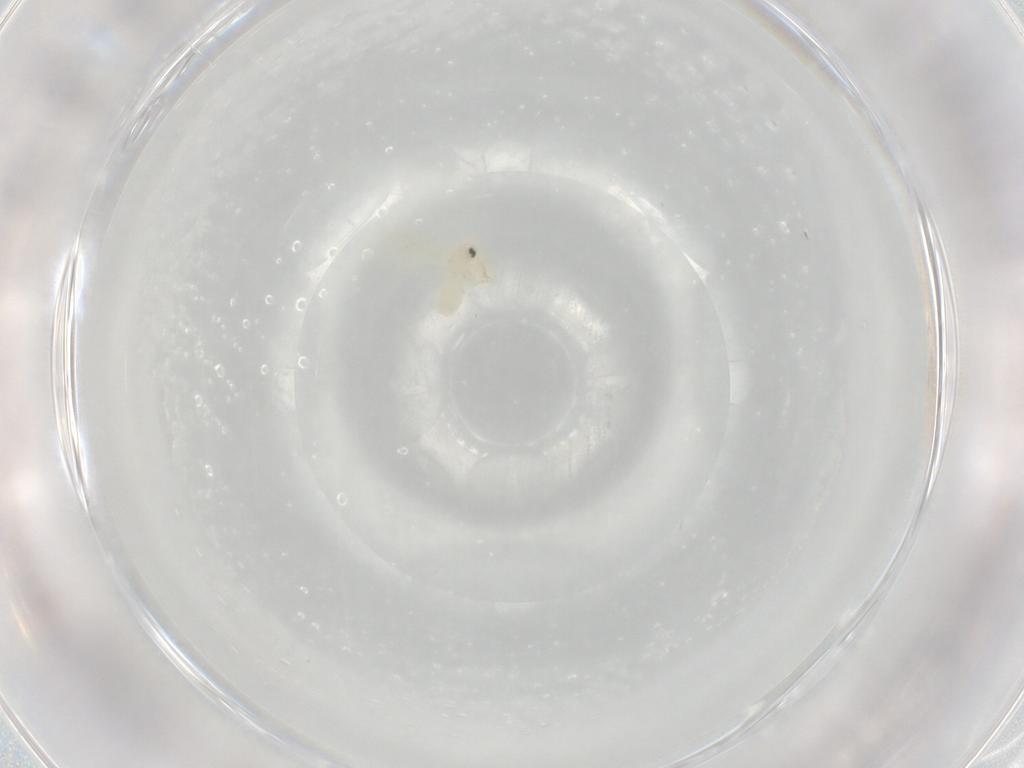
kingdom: Animalia
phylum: Arthropoda
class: Insecta
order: Hemiptera
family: Aleyrodidae
